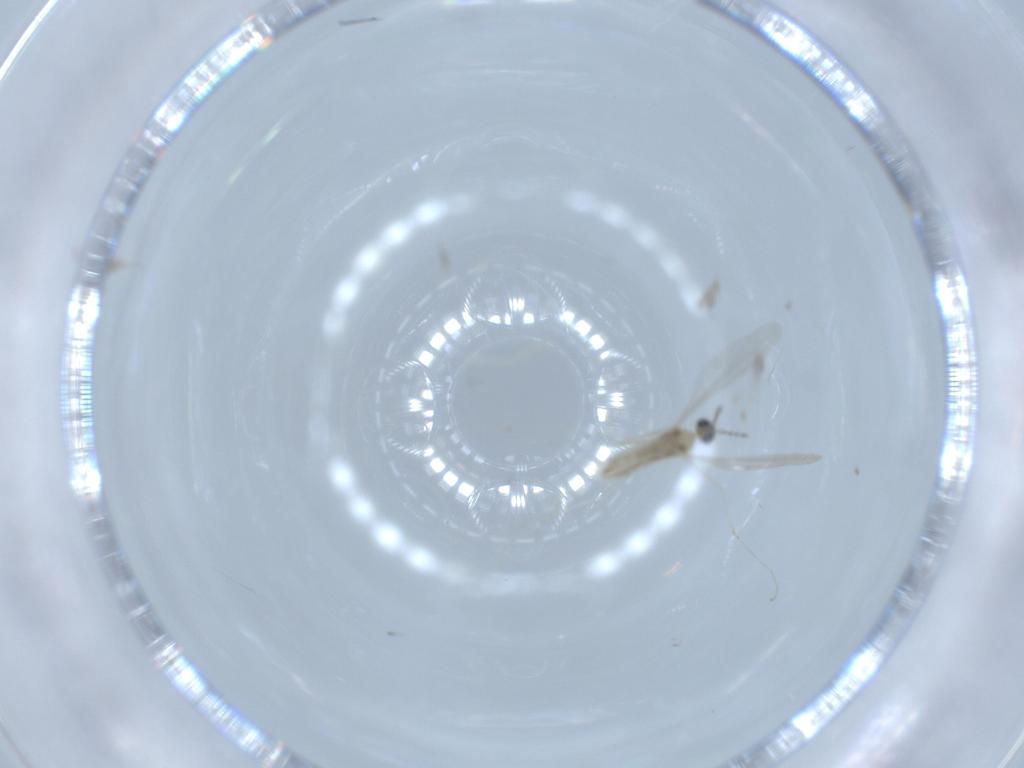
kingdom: Animalia
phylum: Arthropoda
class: Insecta
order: Diptera
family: Cecidomyiidae
